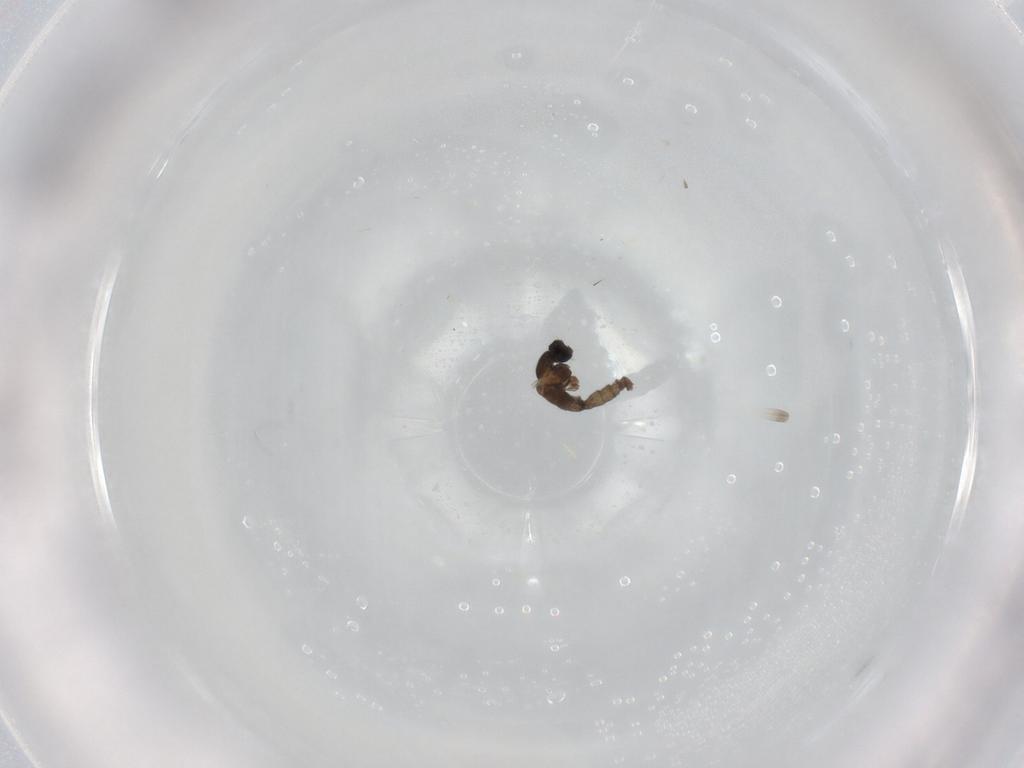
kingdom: Animalia
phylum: Arthropoda
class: Insecta
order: Diptera
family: Cecidomyiidae
